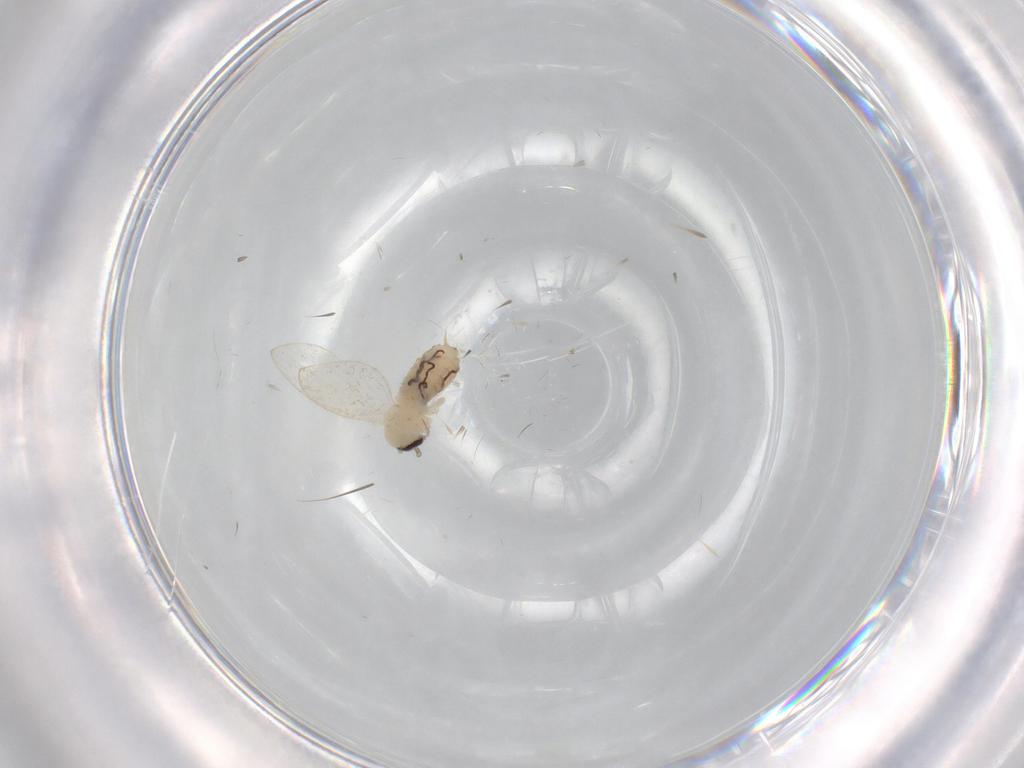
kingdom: Animalia
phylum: Arthropoda
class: Insecta
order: Diptera
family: Psychodidae
